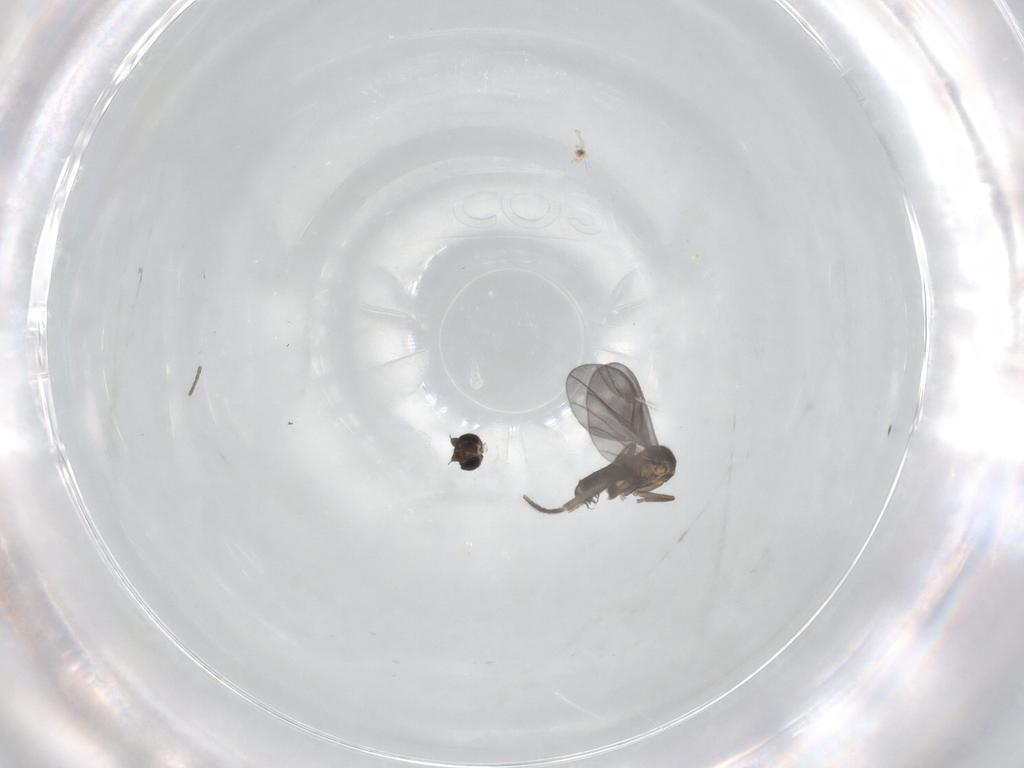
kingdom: Animalia
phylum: Arthropoda
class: Insecta
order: Diptera
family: Phoridae
